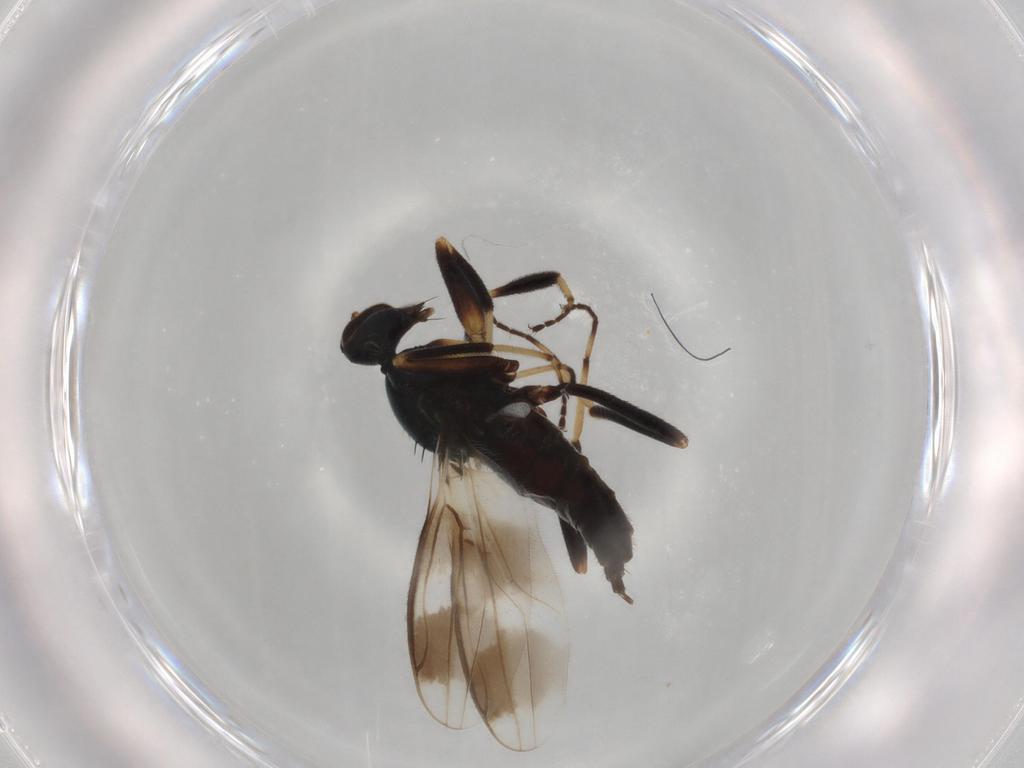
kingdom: Animalia
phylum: Arthropoda
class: Insecta
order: Diptera
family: Hybotidae
